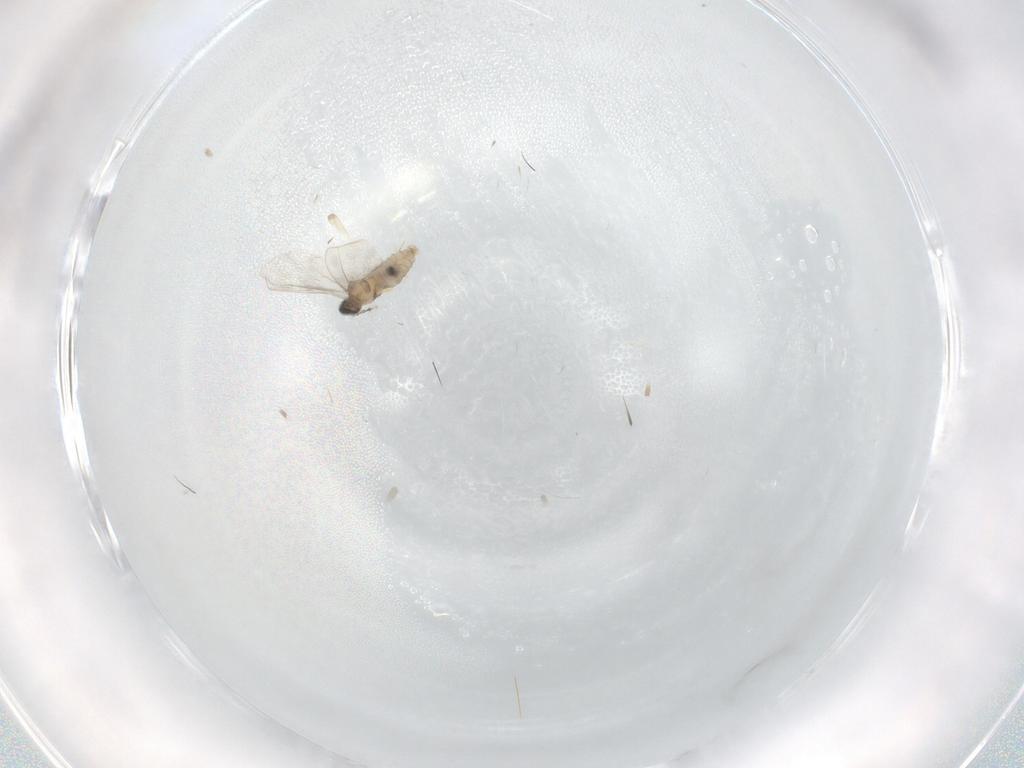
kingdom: Animalia
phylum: Arthropoda
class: Insecta
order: Diptera
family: Cecidomyiidae
